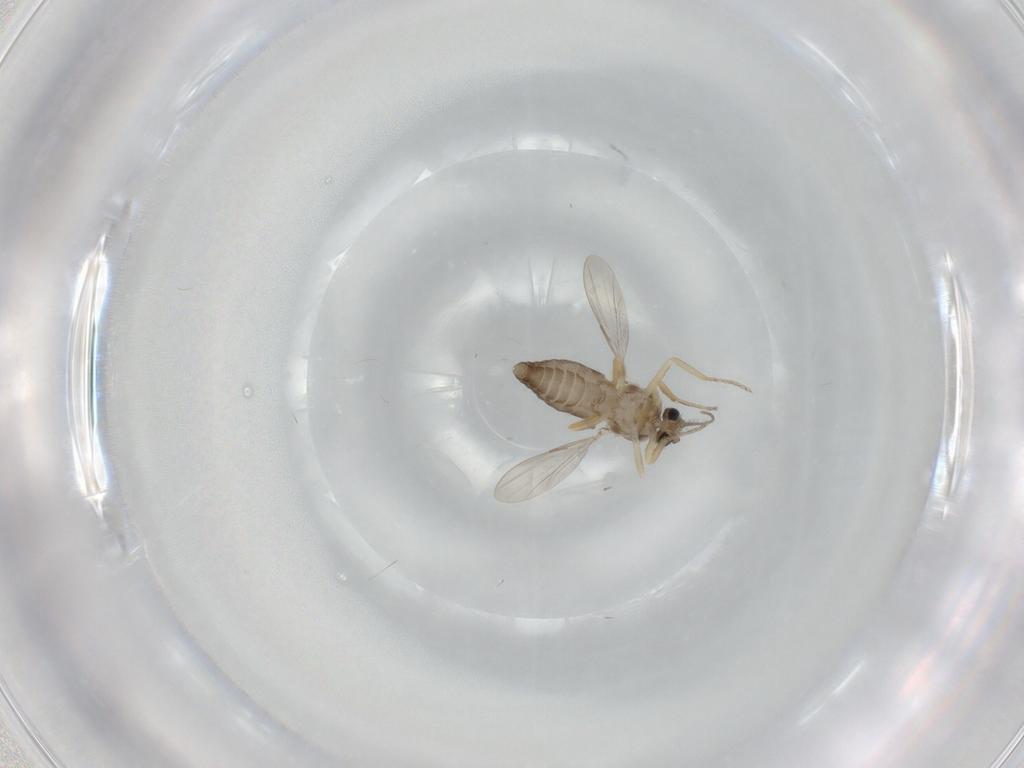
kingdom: Animalia
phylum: Arthropoda
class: Insecta
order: Diptera
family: Ceratopogonidae
